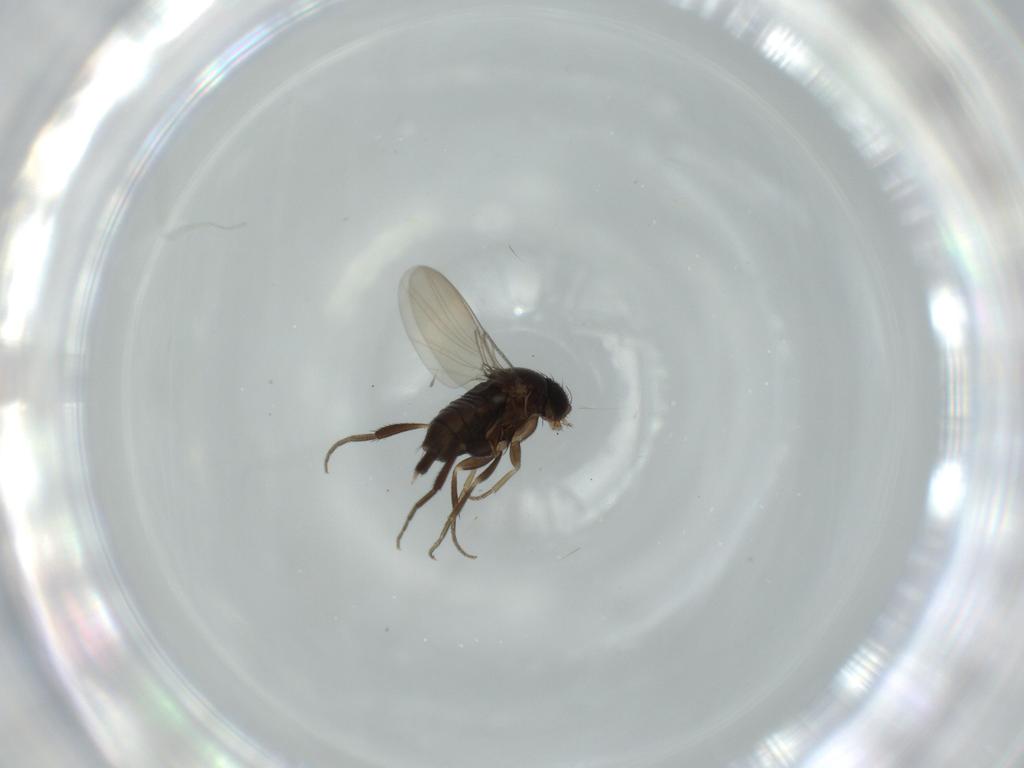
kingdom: Animalia
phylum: Arthropoda
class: Insecta
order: Diptera
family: Phoridae
